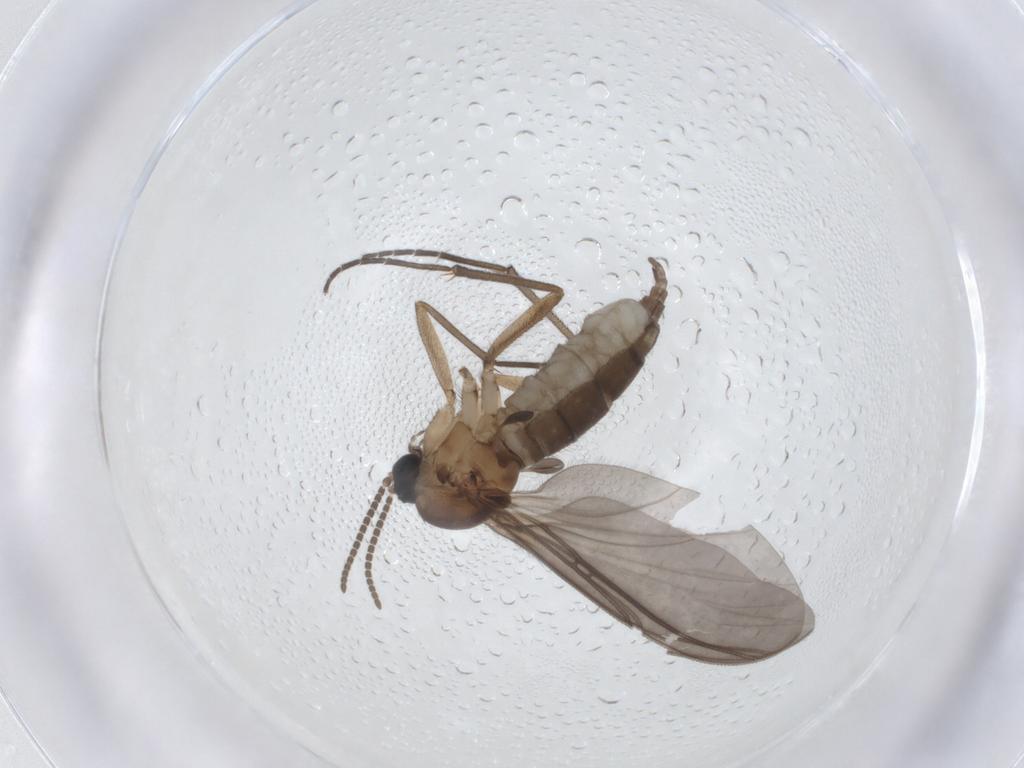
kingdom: Animalia
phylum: Arthropoda
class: Insecta
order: Diptera
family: Sciaridae
